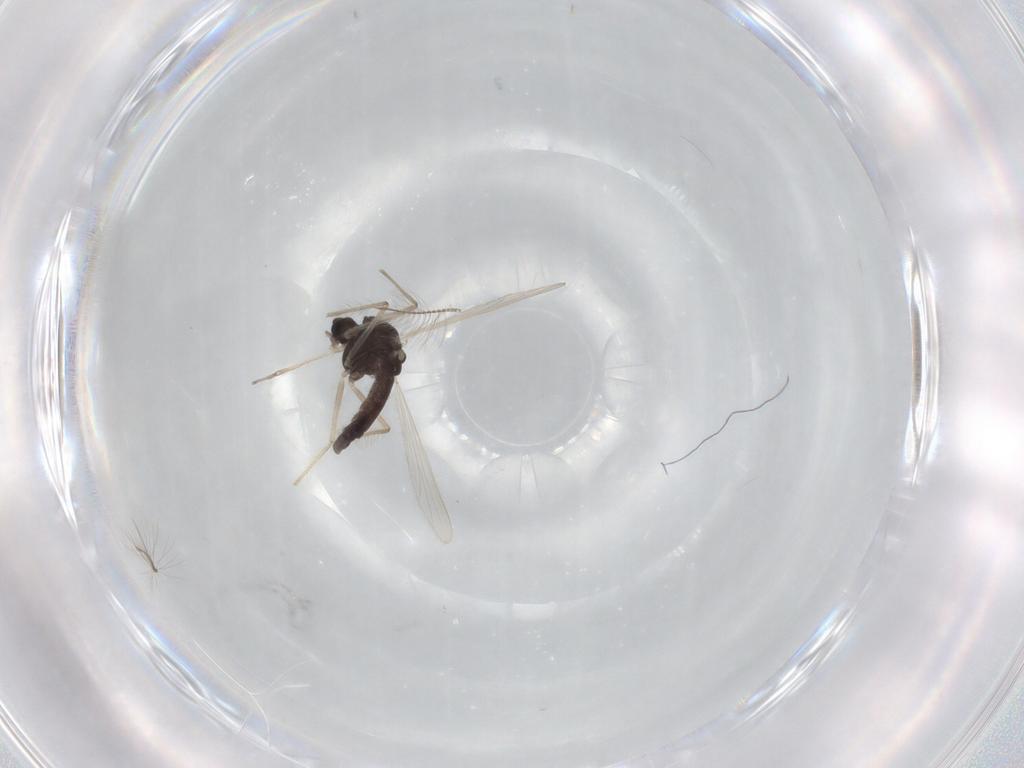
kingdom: Animalia
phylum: Arthropoda
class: Insecta
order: Diptera
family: Chironomidae
